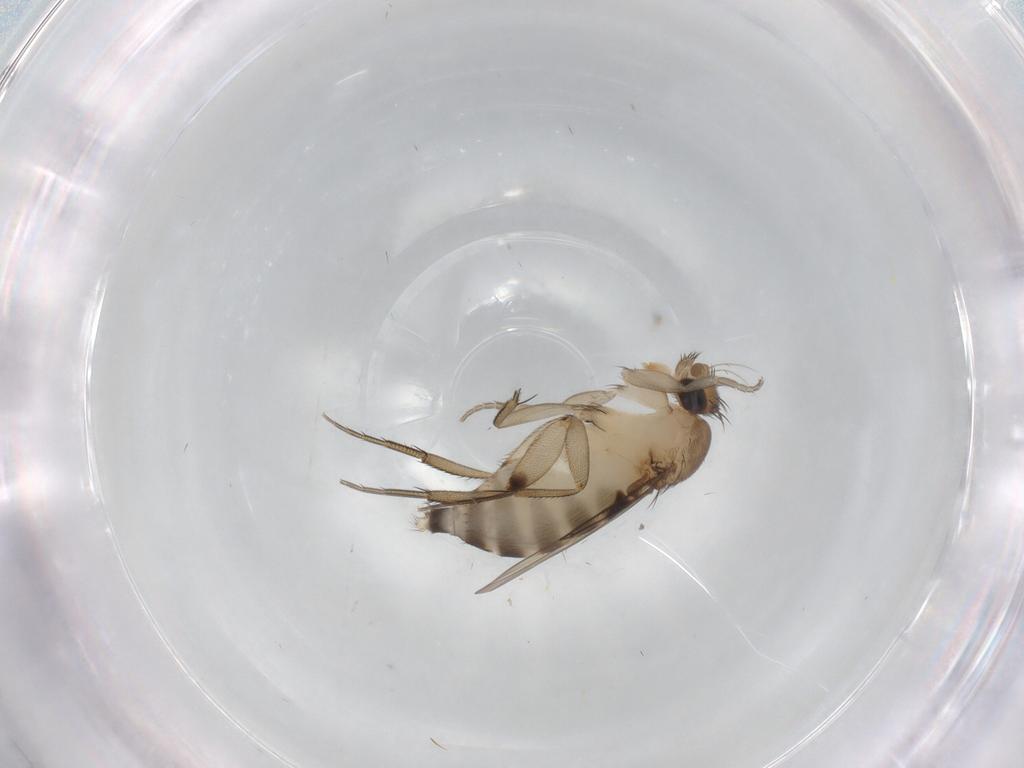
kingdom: Animalia
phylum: Arthropoda
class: Insecta
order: Diptera
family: Phoridae
